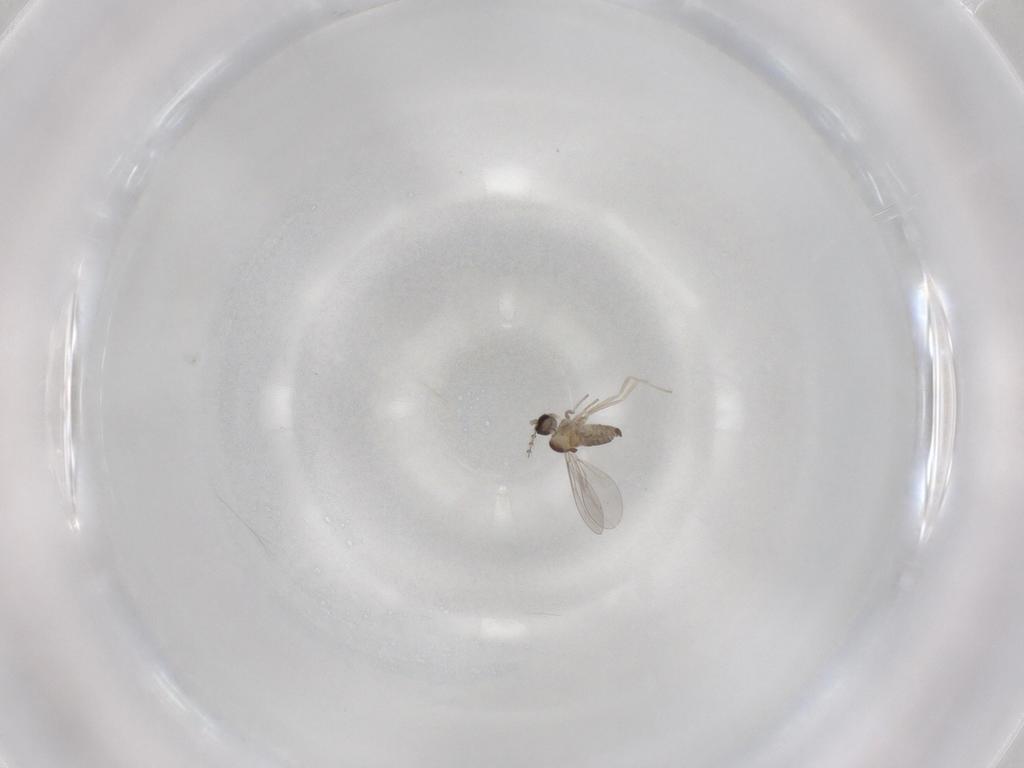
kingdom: Animalia
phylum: Arthropoda
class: Insecta
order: Diptera
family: Cecidomyiidae
